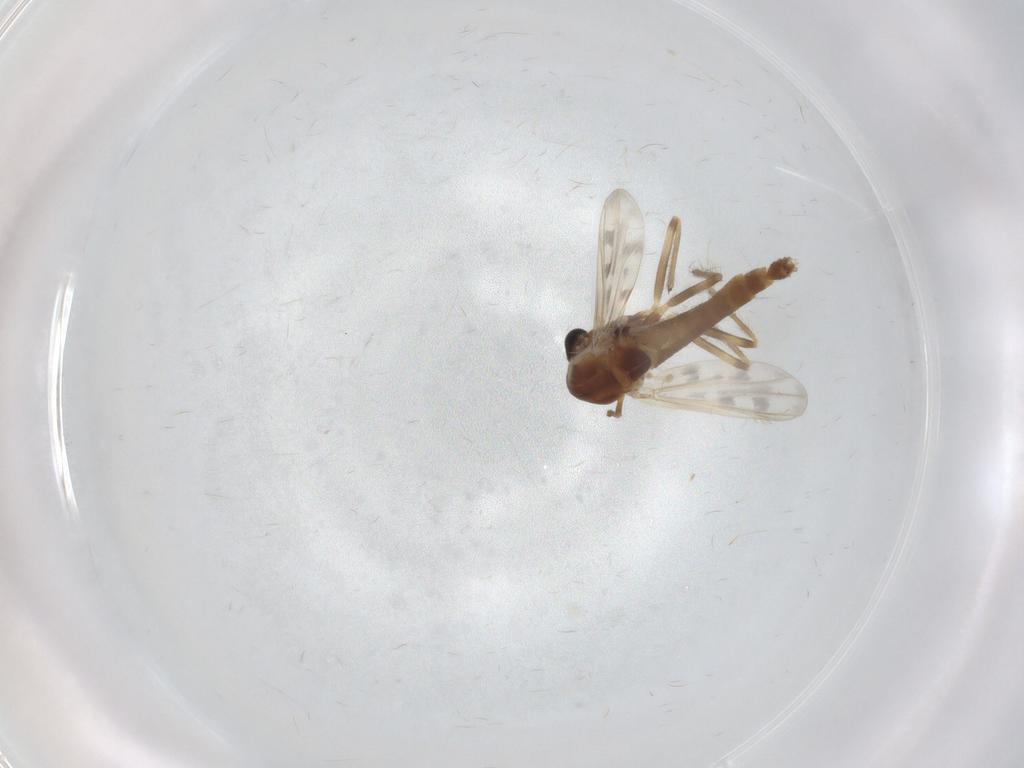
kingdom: Animalia
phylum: Arthropoda
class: Insecta
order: Diptera
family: Chironomidae
